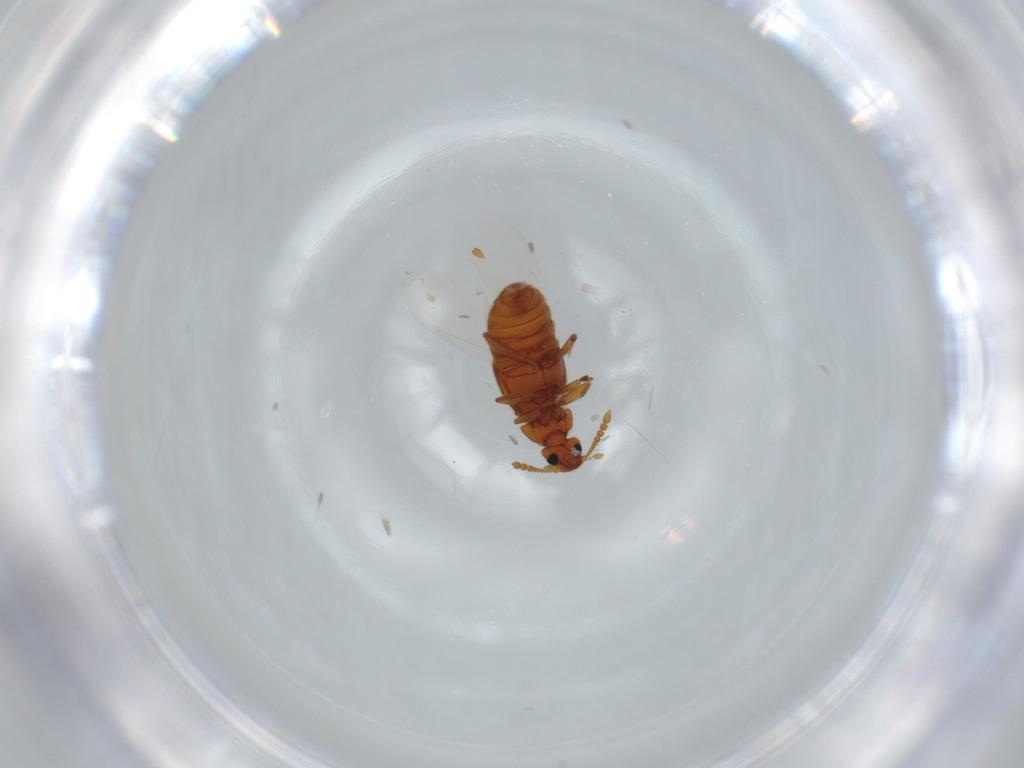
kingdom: Animalia
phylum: Arthropoda
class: Insecta
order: Coleoptera
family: Staphylinidae
